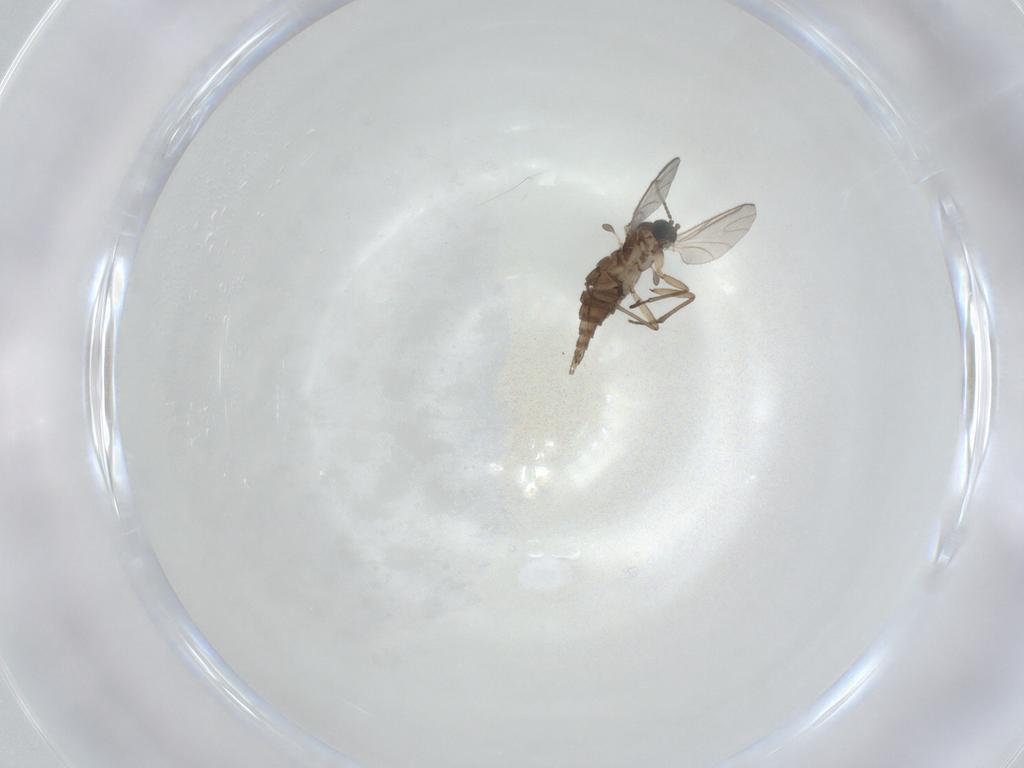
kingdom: Animalia
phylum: Arthropoda
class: Insecta
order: Diptera
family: Sciaridae
